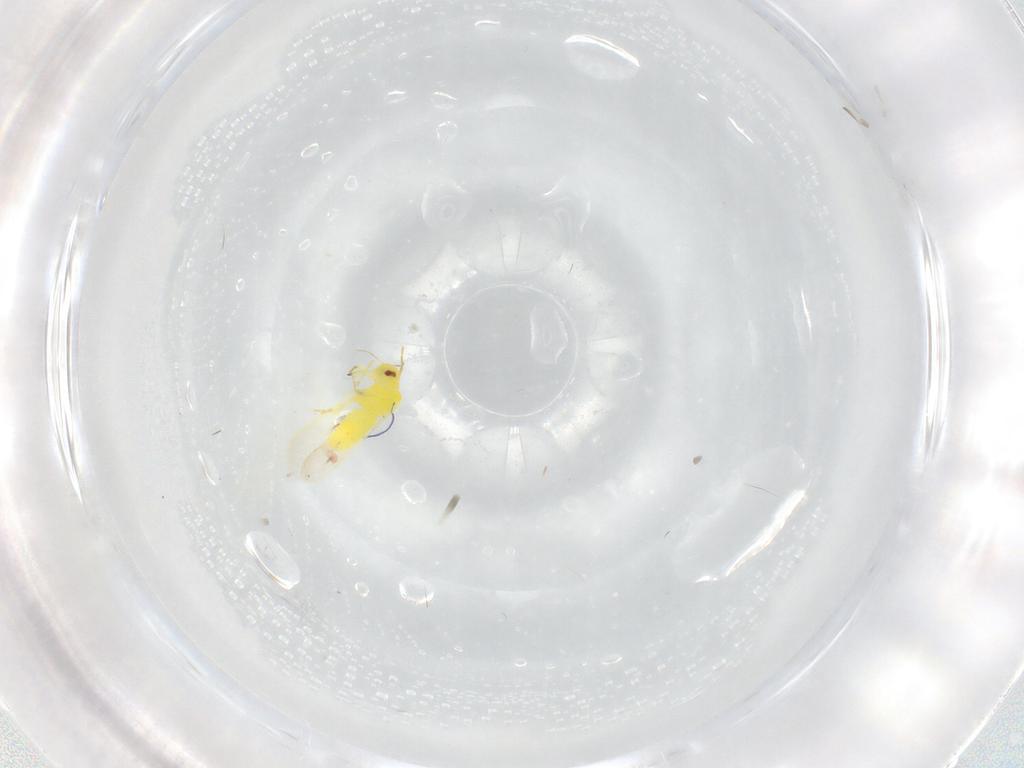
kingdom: Animalia
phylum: Arthropoda
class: Insecta
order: Hemiptera
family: Aleyrodidae
